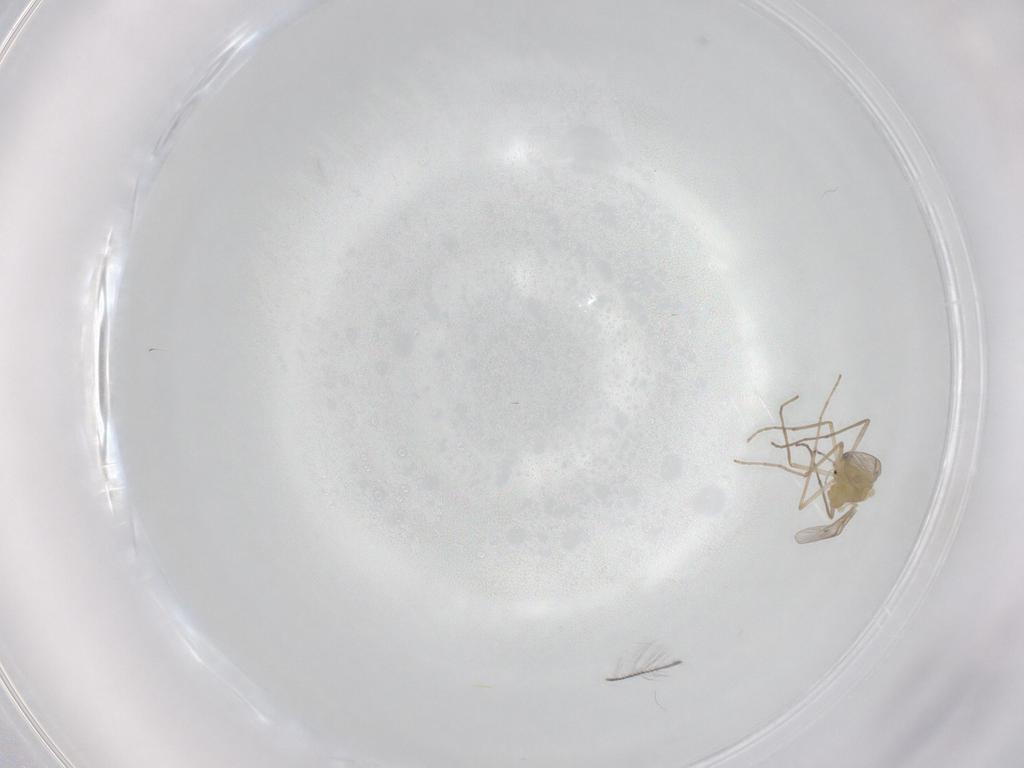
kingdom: Animalia
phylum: Arthropoda
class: Insecta
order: Diptera
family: Chironomidae
